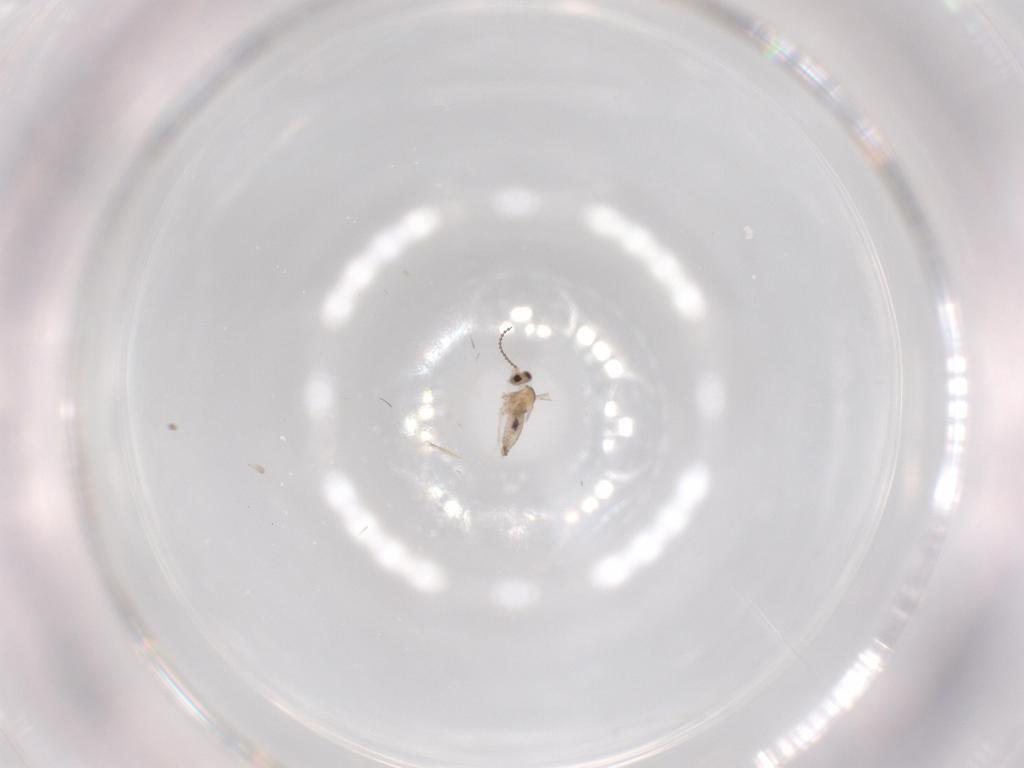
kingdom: Animalia
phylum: Arthropoda
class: Insecta
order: Diptera
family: Cecidomyiidae
